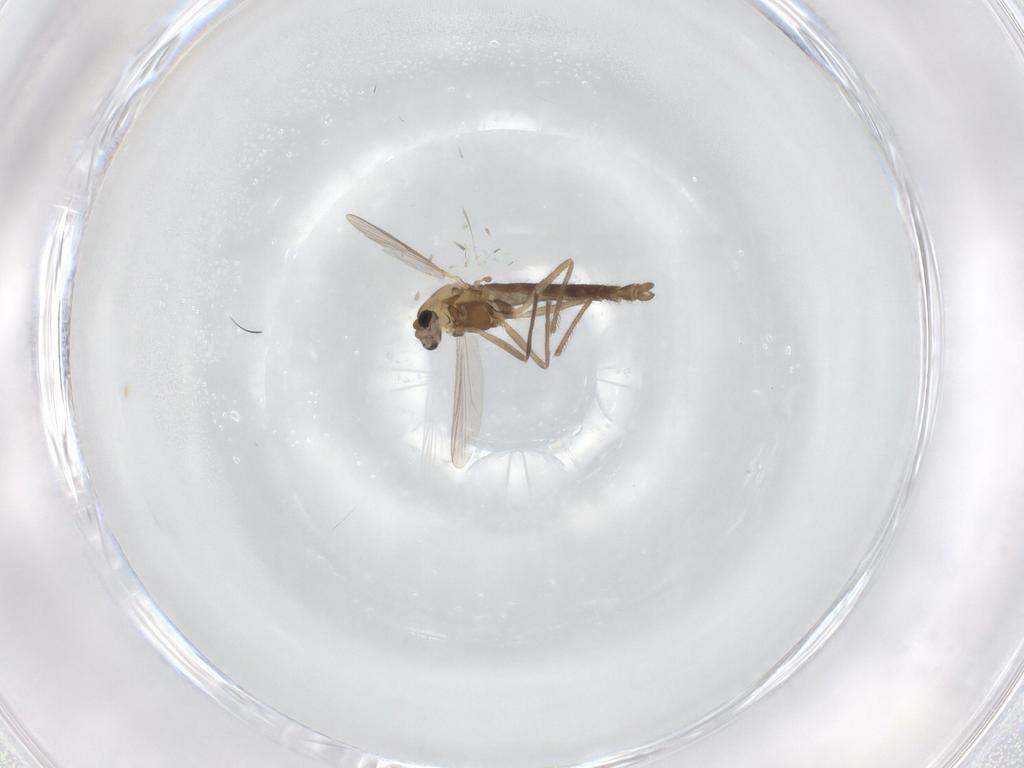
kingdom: Animalia
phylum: Arthropoda
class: Insecta
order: Diptera
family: Chironomidae
